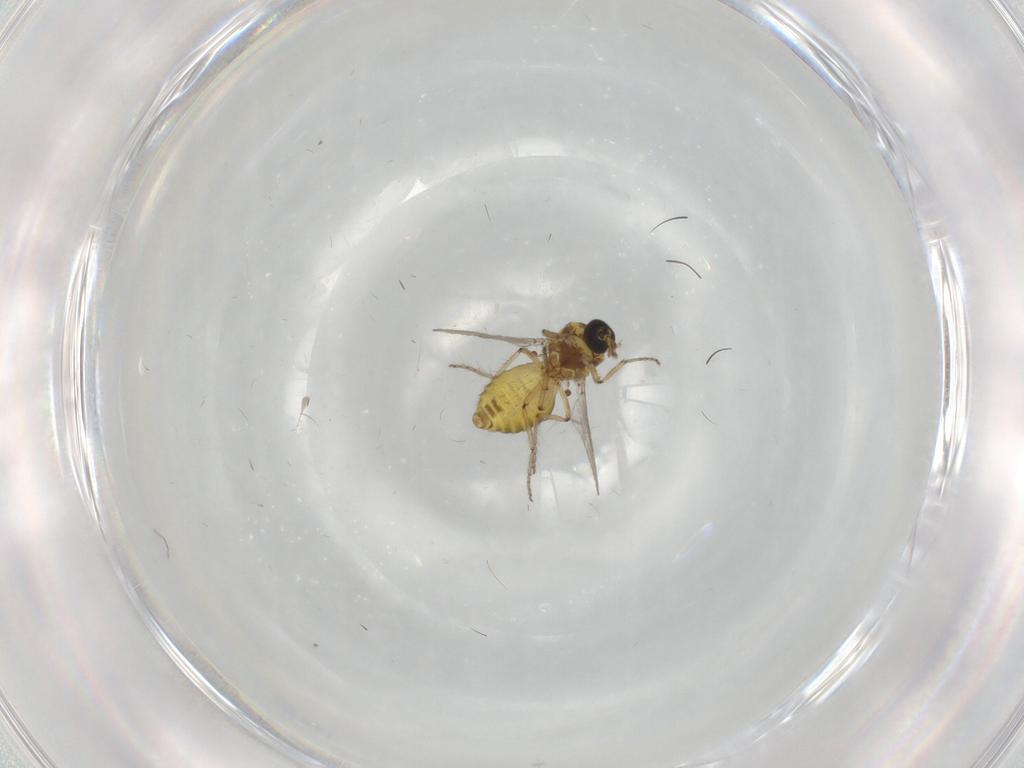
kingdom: Animalia
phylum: Arthropoda
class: Insecta
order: Diptera
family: Ceratopogonidae
